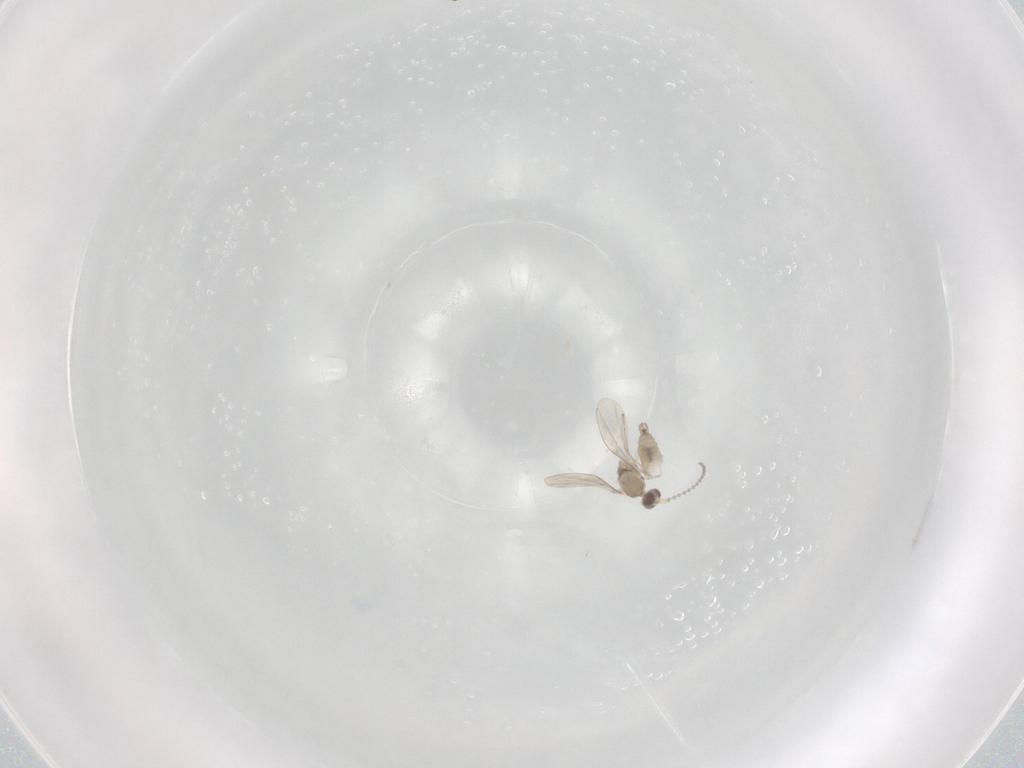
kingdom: Animalia
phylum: Arthropoda
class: Insecta
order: Diptera
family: Cecidomyiidae
